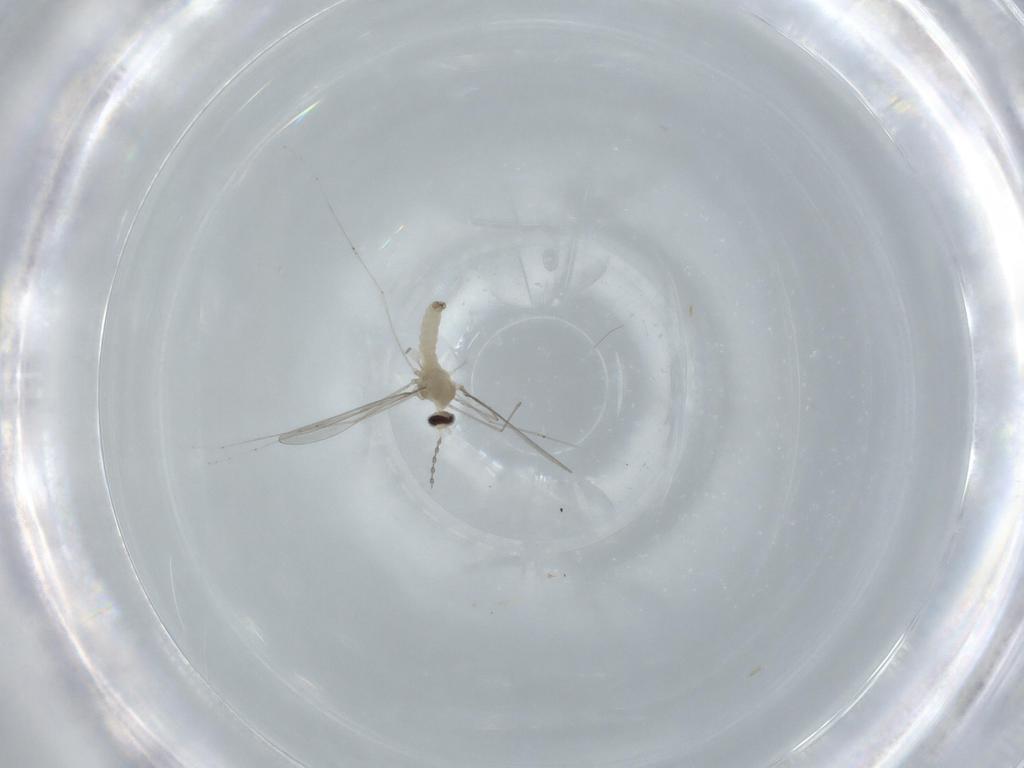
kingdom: Animalia
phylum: Arthropoda
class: Insecta
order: Diptera
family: Cecidomyiidae
